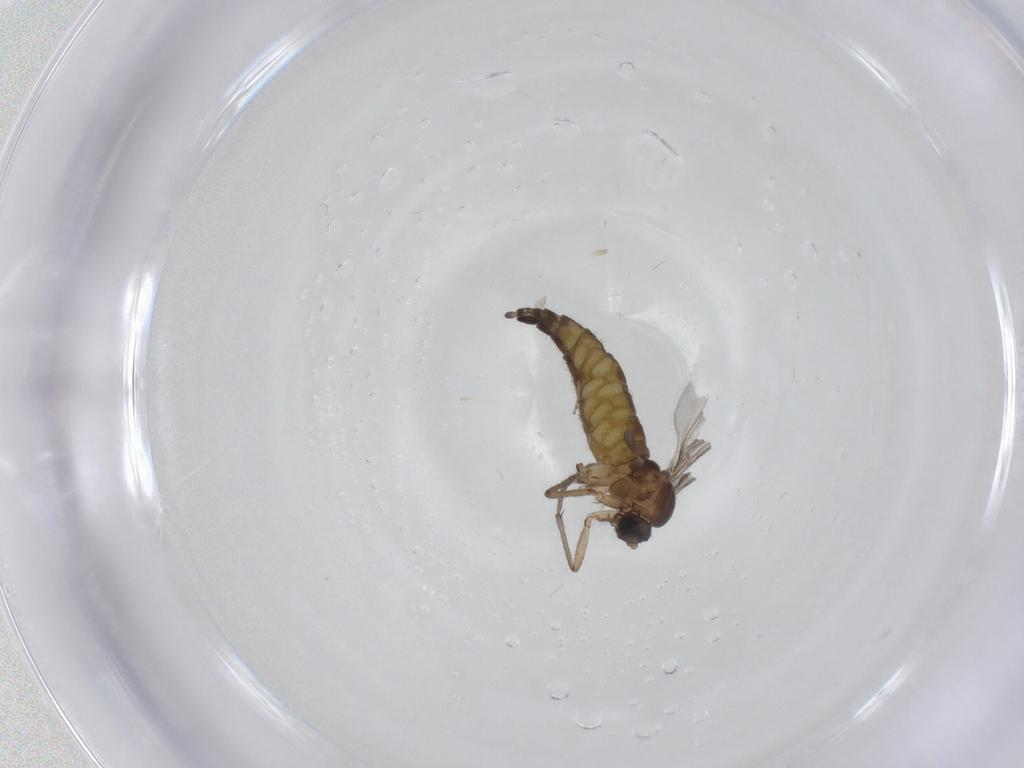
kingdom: Animalia
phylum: Arthropoda
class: Insecta
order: Diptera
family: Sciaridae
